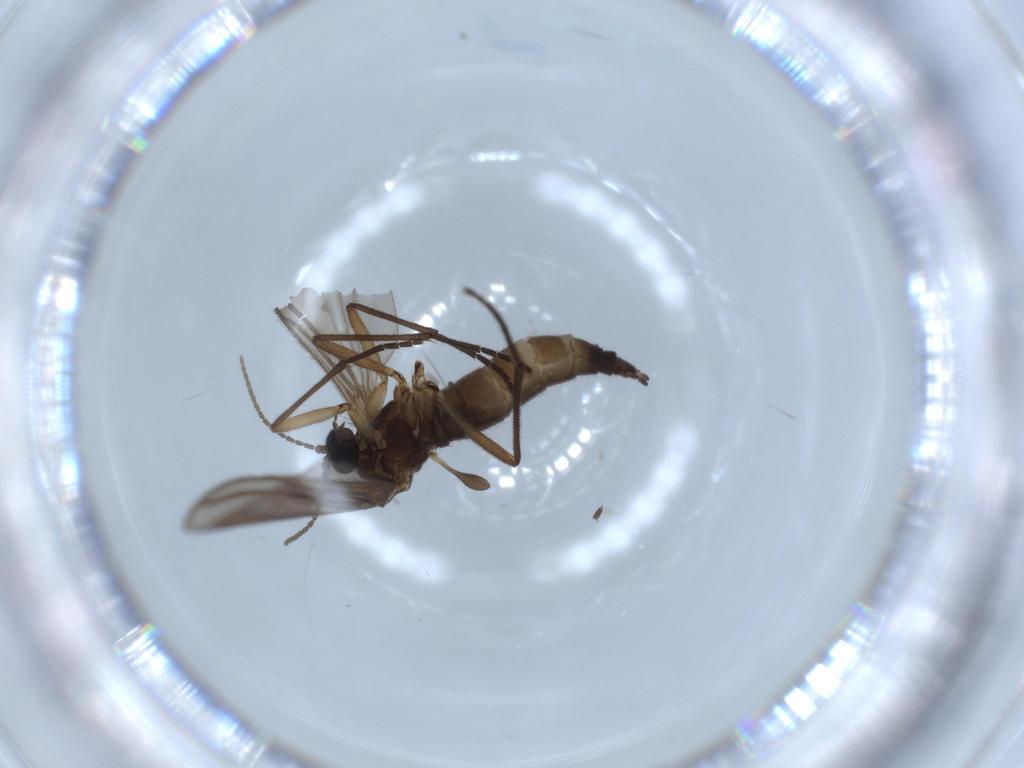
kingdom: Animalia
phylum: Arthropoda
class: Insecta
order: Diptera
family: Sciaridae
